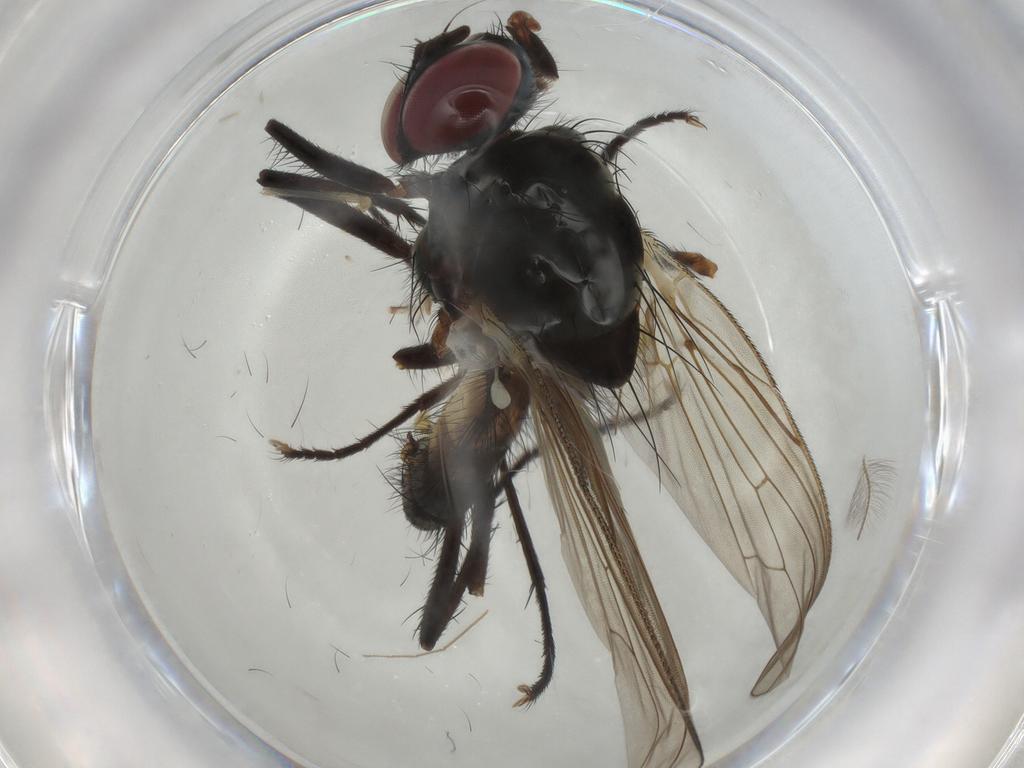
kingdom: Animalia
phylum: Arthropoda
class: Insecta
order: Diptera
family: Anthomyiidae
